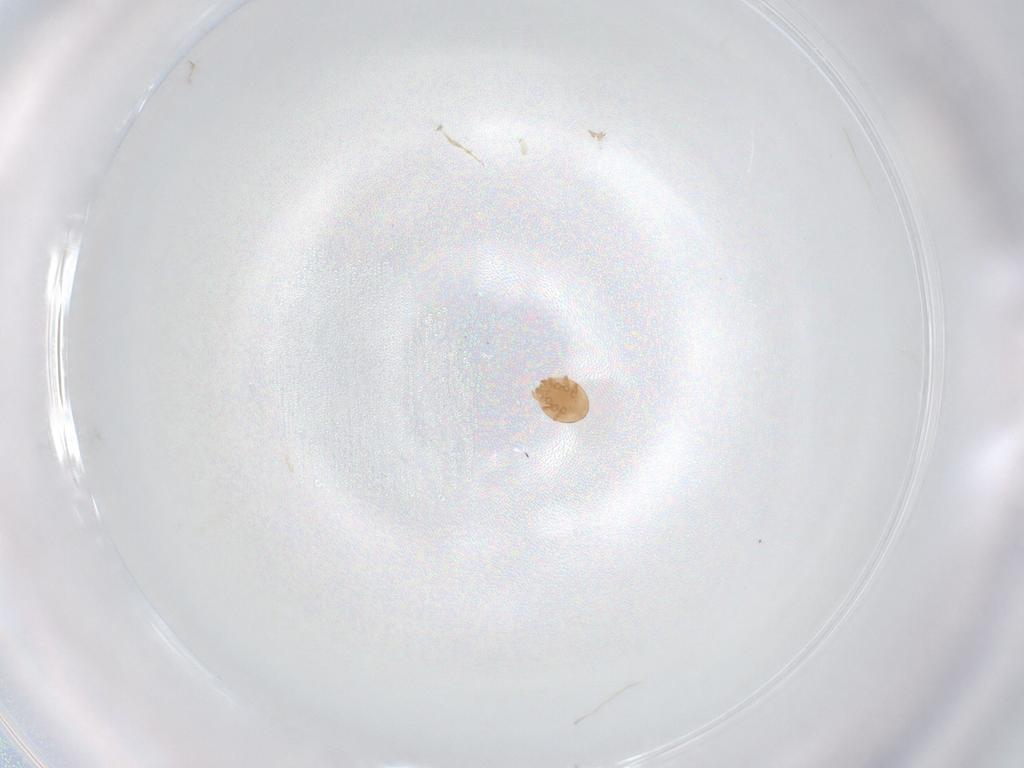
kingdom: Animalia
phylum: Arthropoda
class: Arachnida
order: Mesostigmata
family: Trematuridae
